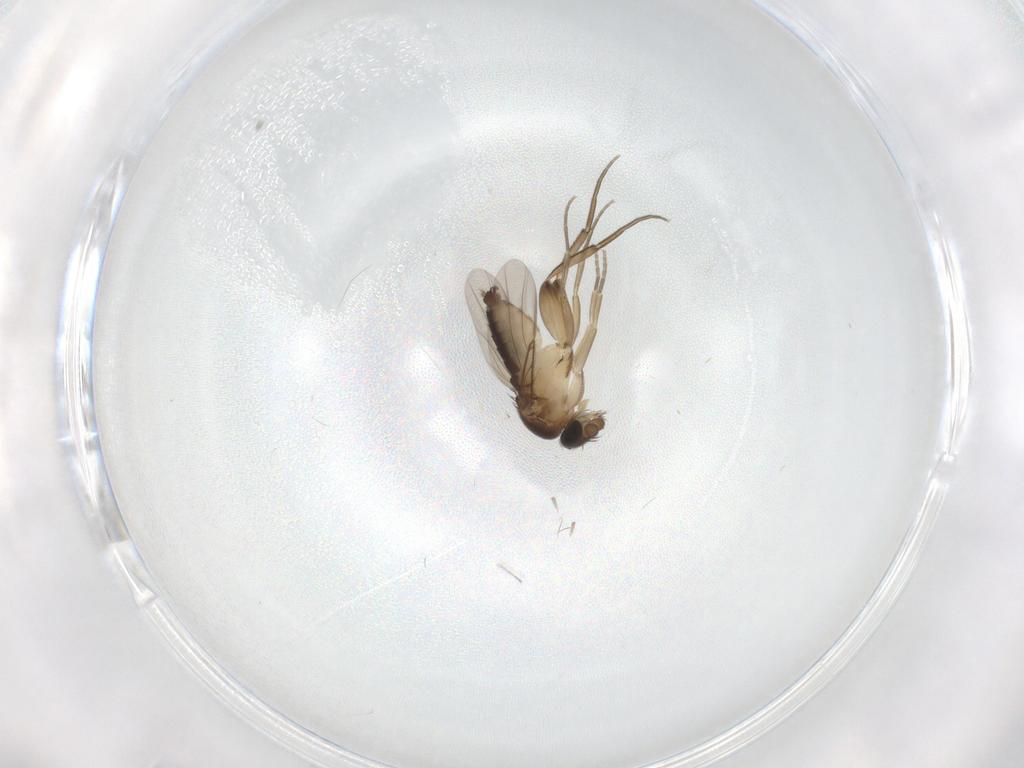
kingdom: Animalia
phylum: Arthropoda
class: Insecta
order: Diptera
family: Phoridae
